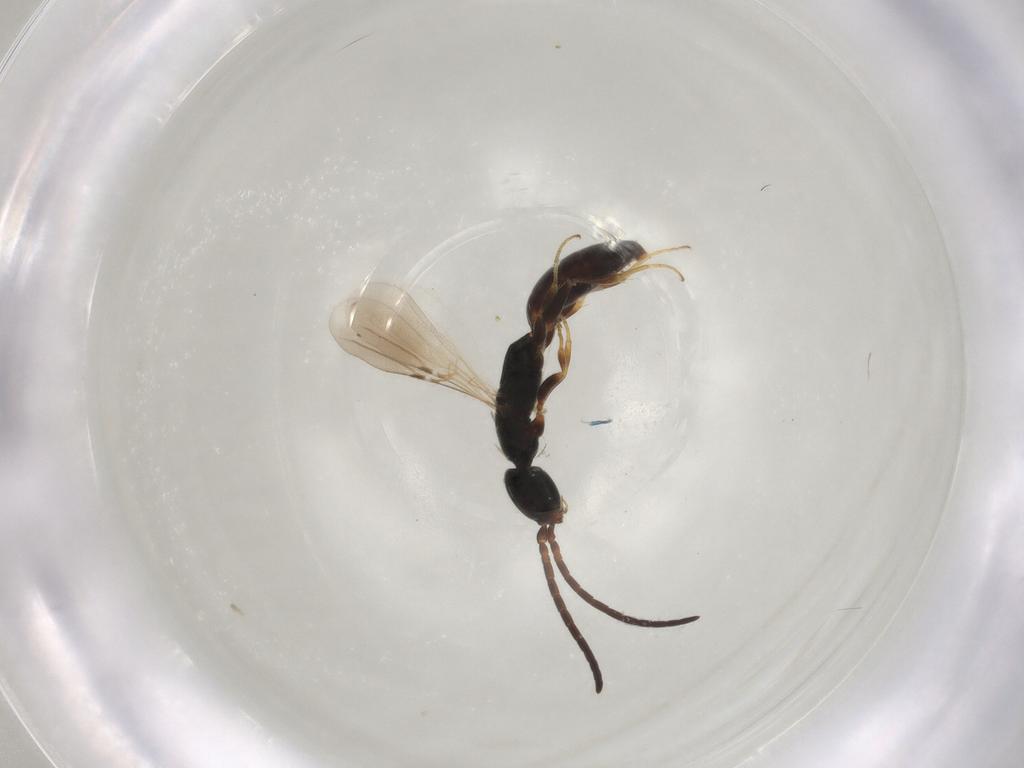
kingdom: Animalia
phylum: Arthropoda
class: Insecta
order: Hymenoptera
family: Bethylidae
